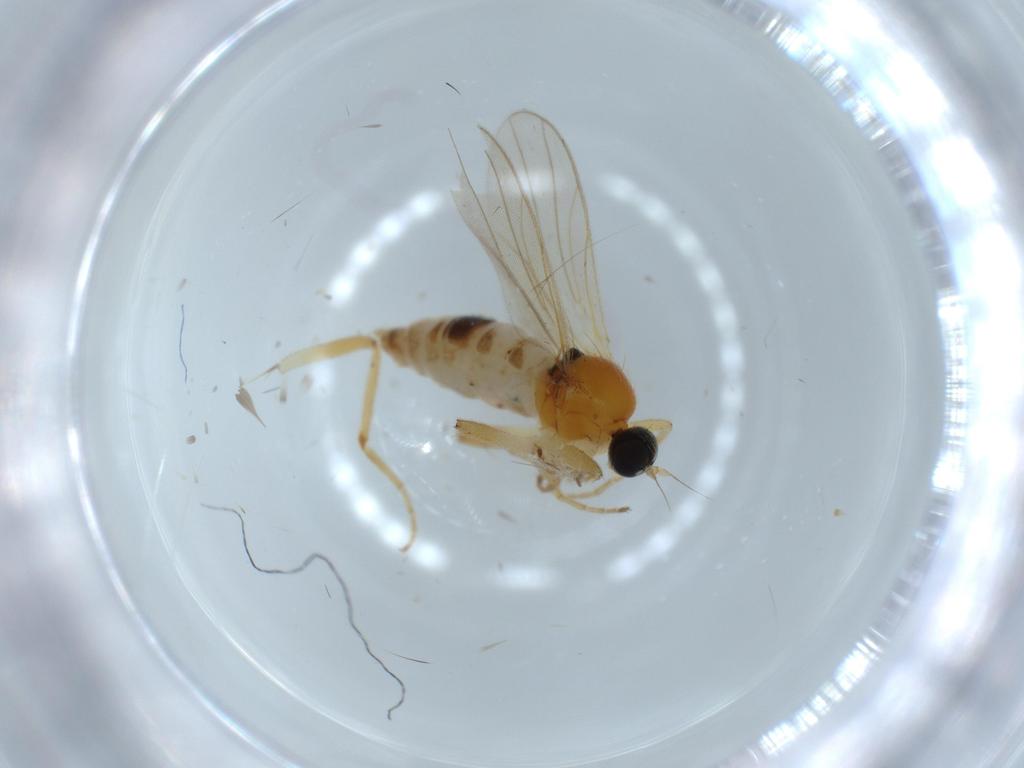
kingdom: Animalia
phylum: Arthropoda
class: Insecta
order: Diptera
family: Hybotidae
